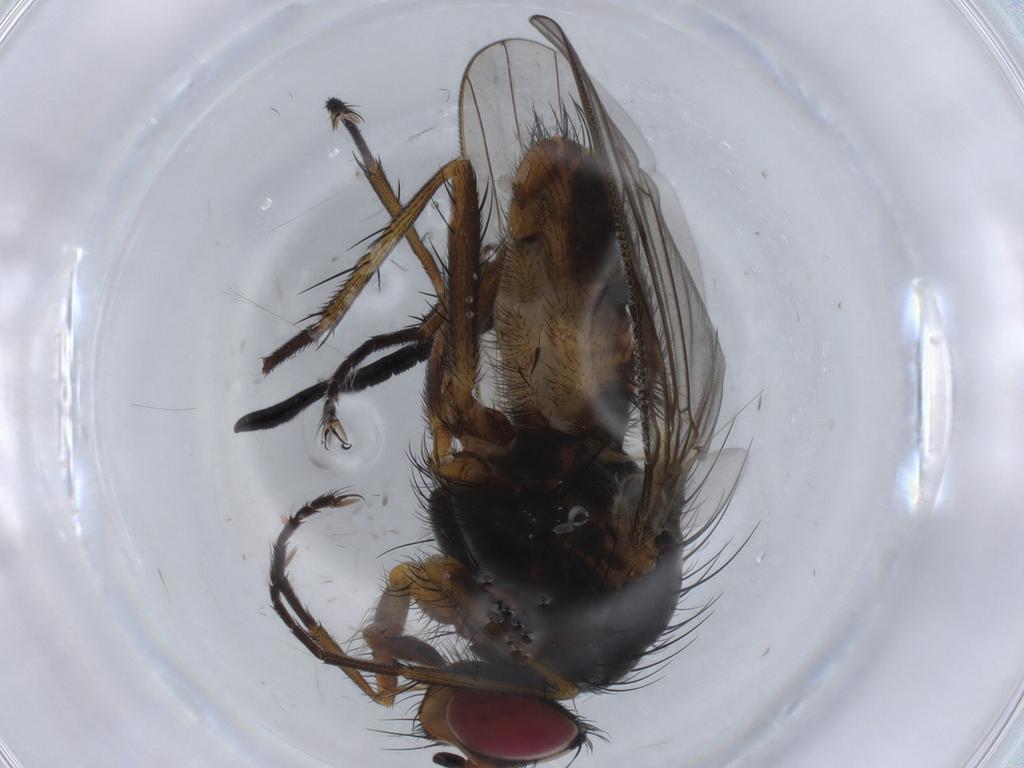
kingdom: Animalia
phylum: Arthropoda
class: Insecta
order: Diptera
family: Anthomyiidae
